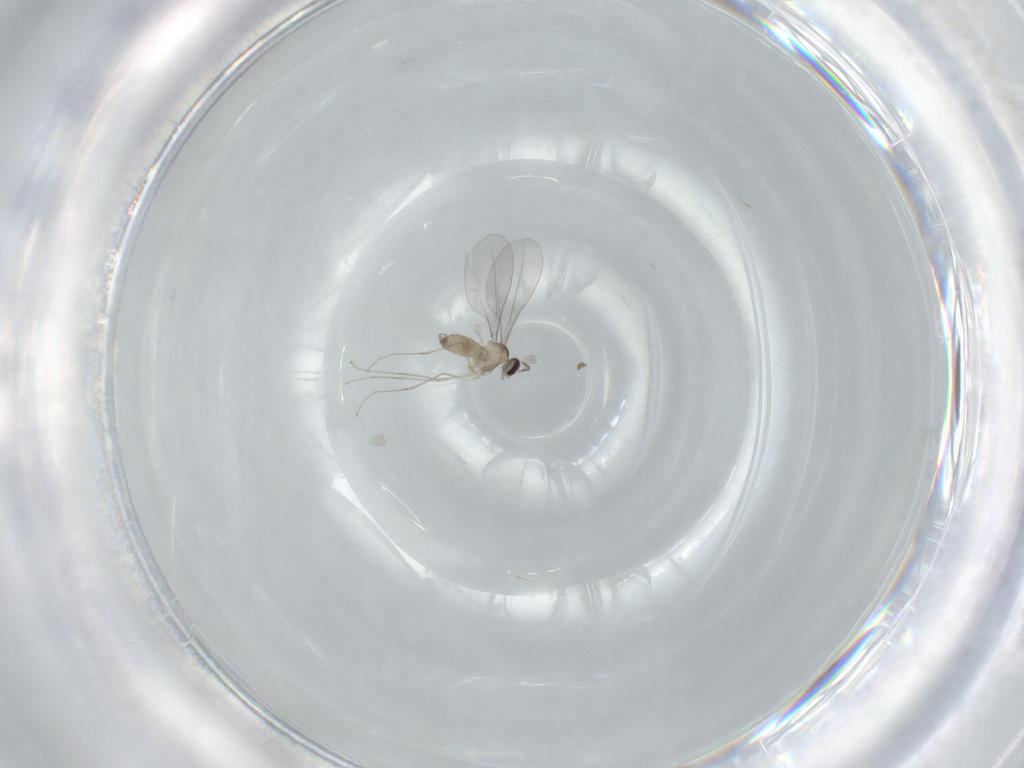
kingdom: Animalia
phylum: Arthropoda
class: Insecta
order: Diptera
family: Cecidomyiidae
